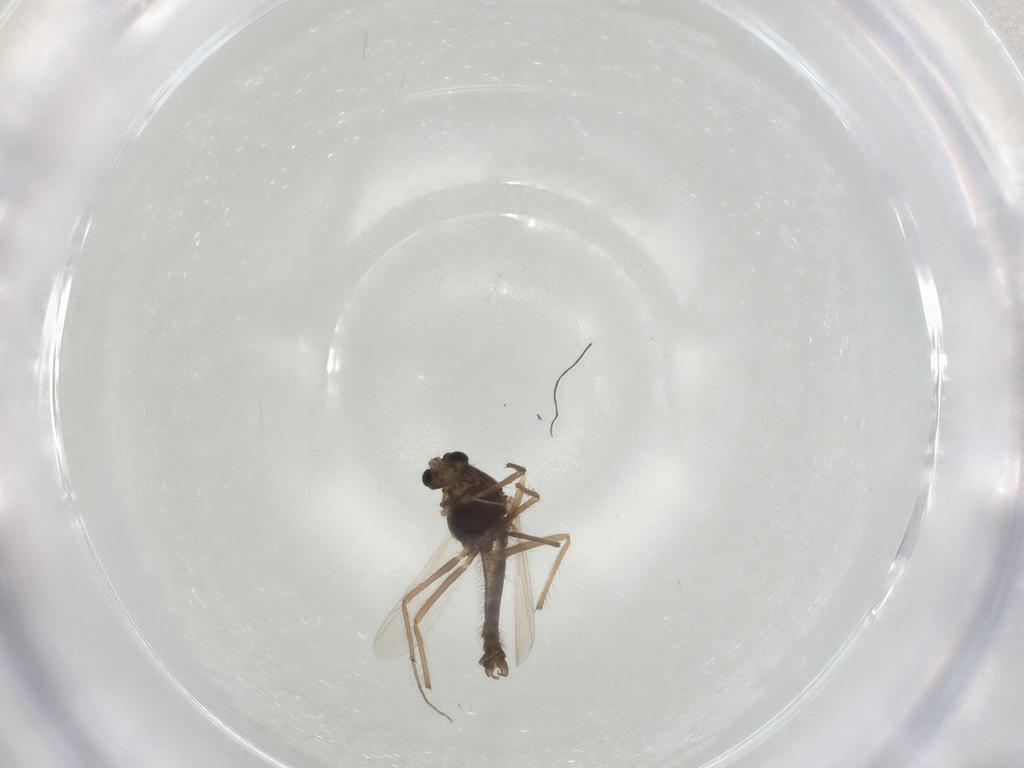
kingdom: Animalia
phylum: Arthropoda
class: Insecta
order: Diptera
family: Chironomidae
